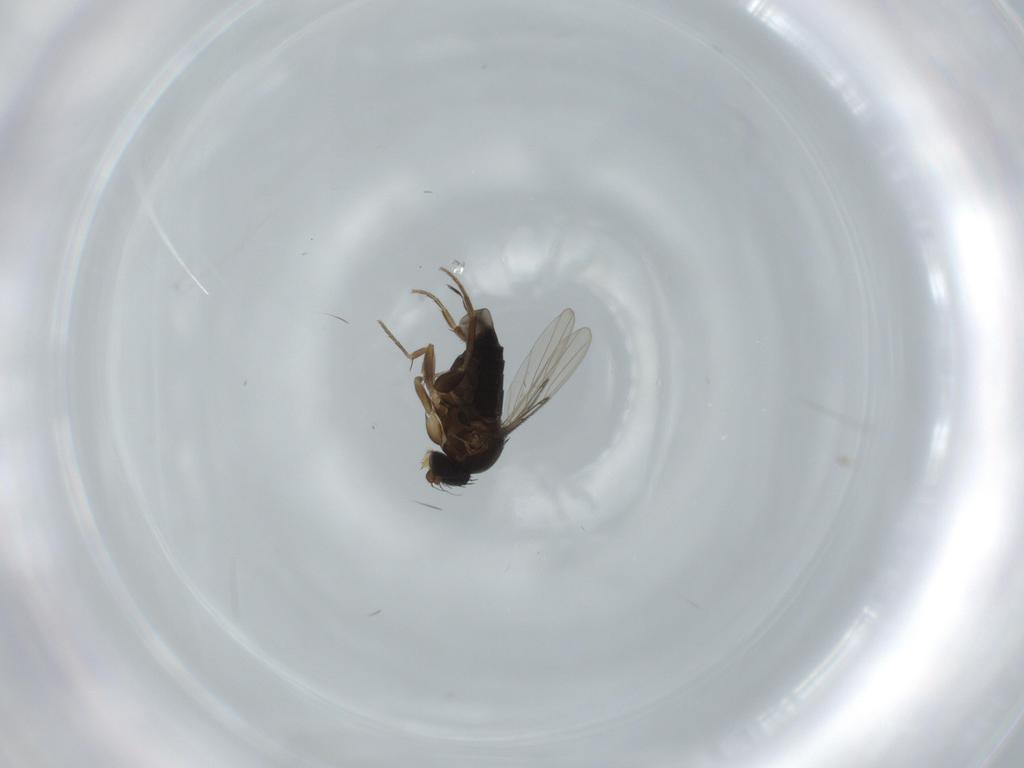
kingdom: Animalia
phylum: Arthropoda
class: Insecta
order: Diptera
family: Phoridae
